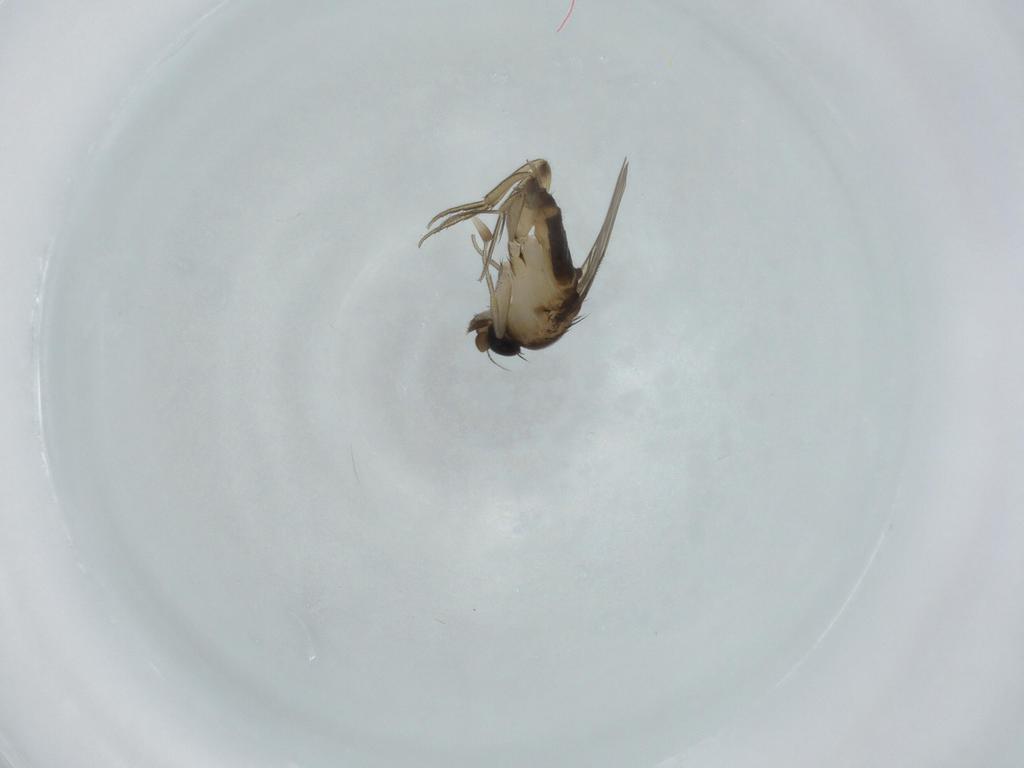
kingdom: Animalia
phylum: Arthropoda
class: Insecta
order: Diptera
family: Phoridae
